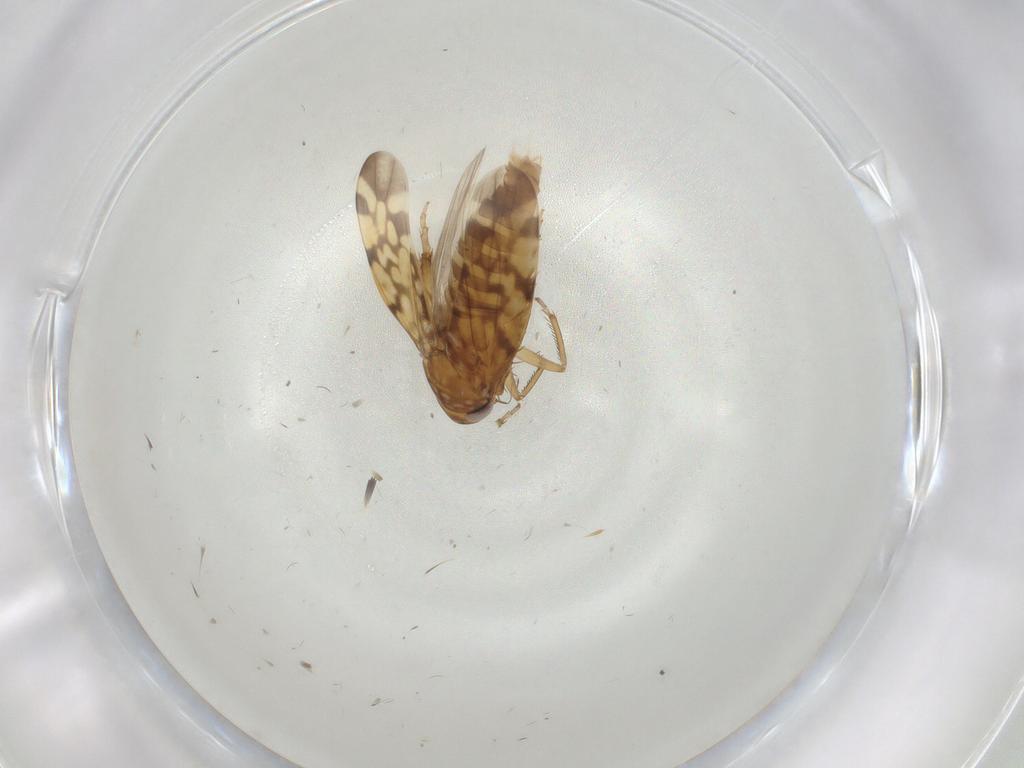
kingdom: Animalia
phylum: Arthropoda
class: Insecta
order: Hemiptera
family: Cicadellidae
